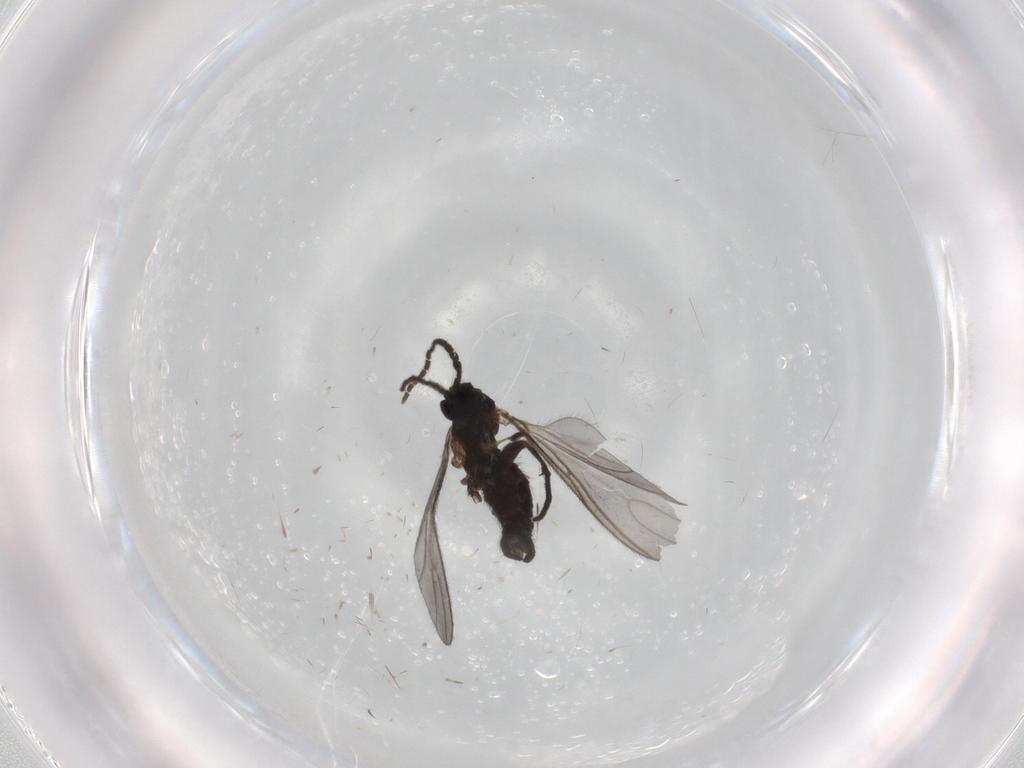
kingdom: Animalia
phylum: Arthropoda
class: Insecta
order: Diptera
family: Sciaridae
